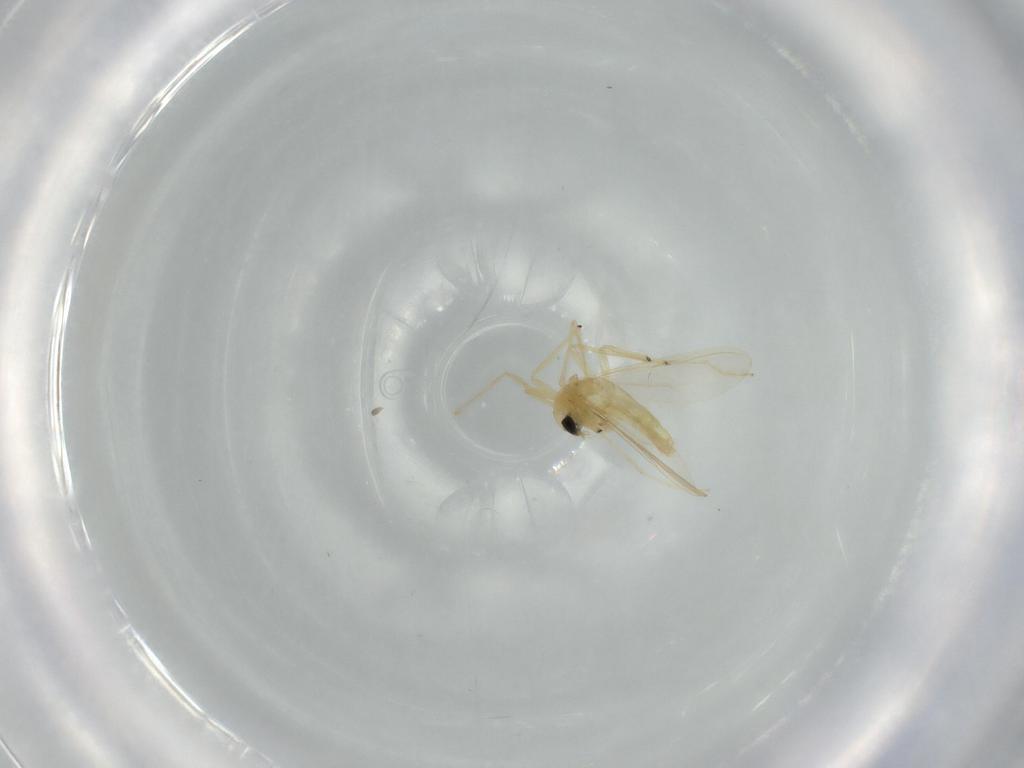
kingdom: Animalia
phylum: Arthropoda
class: Insecta
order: Diptera
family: Chironomidae
